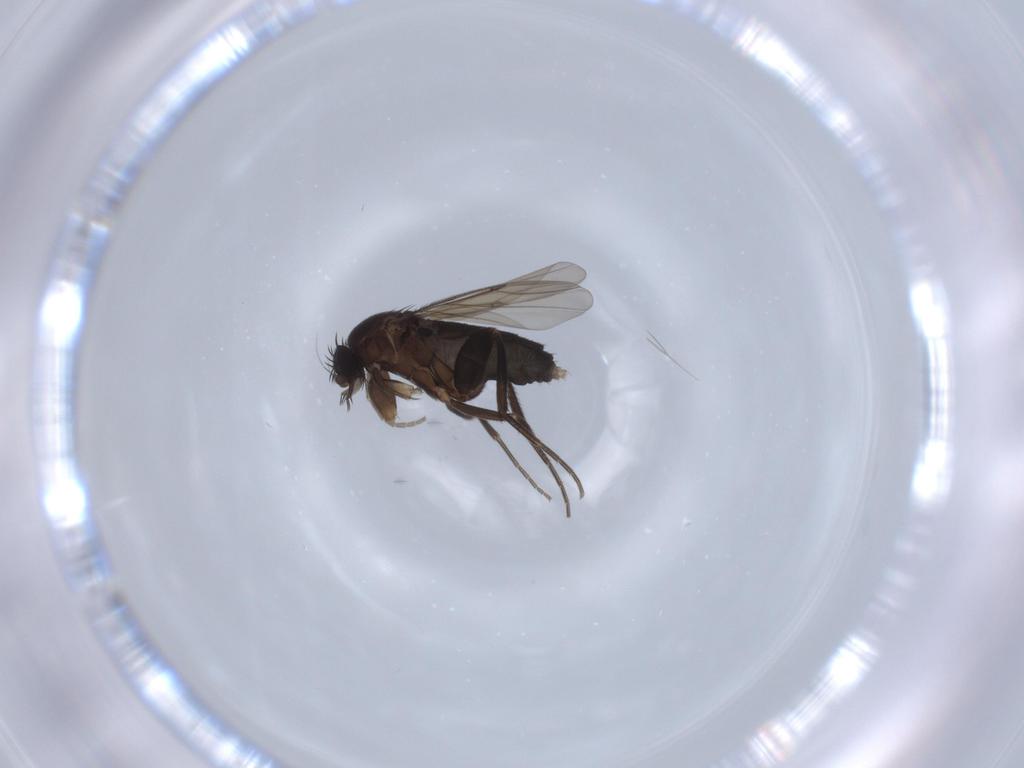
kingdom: Animalia
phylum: Arthropoda
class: Insecta
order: Diptera
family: Phoridae
